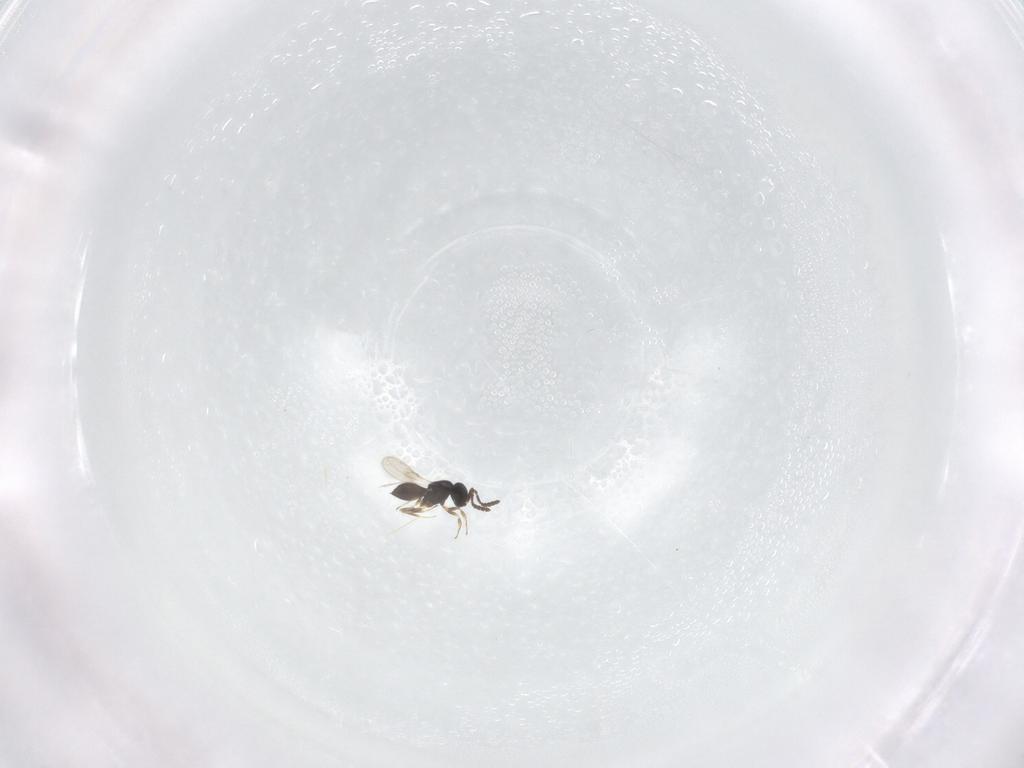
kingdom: Animalia
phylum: Arthropoda
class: Insecta
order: Hymenoptera
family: Scelionidae
